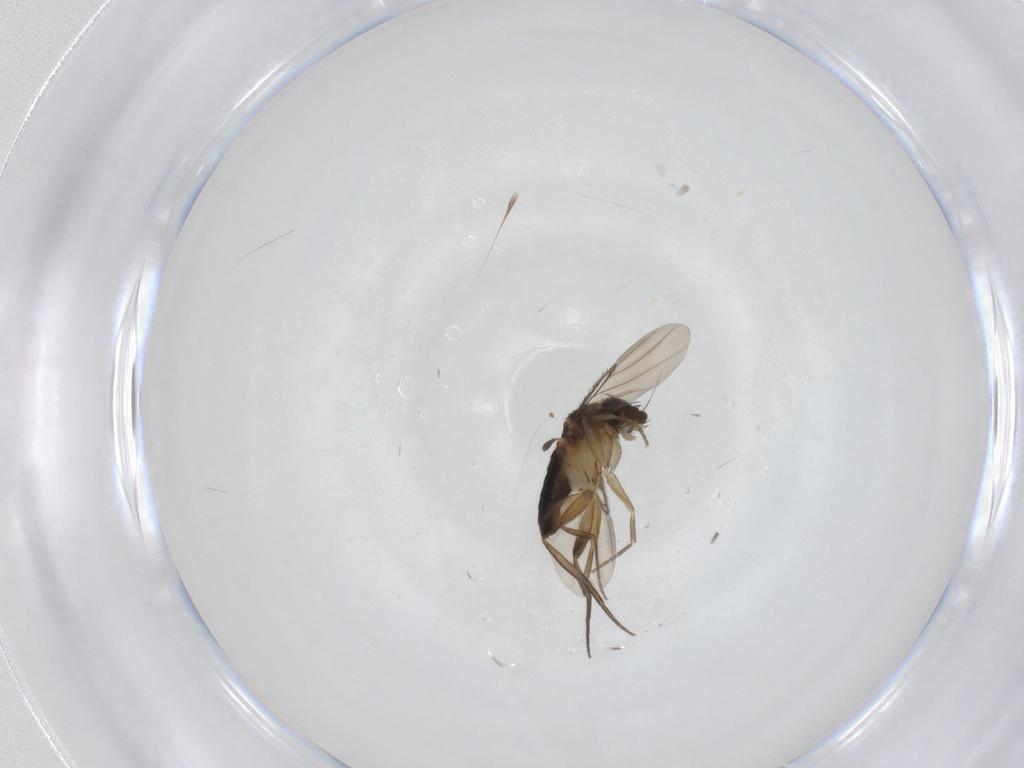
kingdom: Animalia
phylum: Arthropoda
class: Insecta
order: Diptera
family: Phoridae
